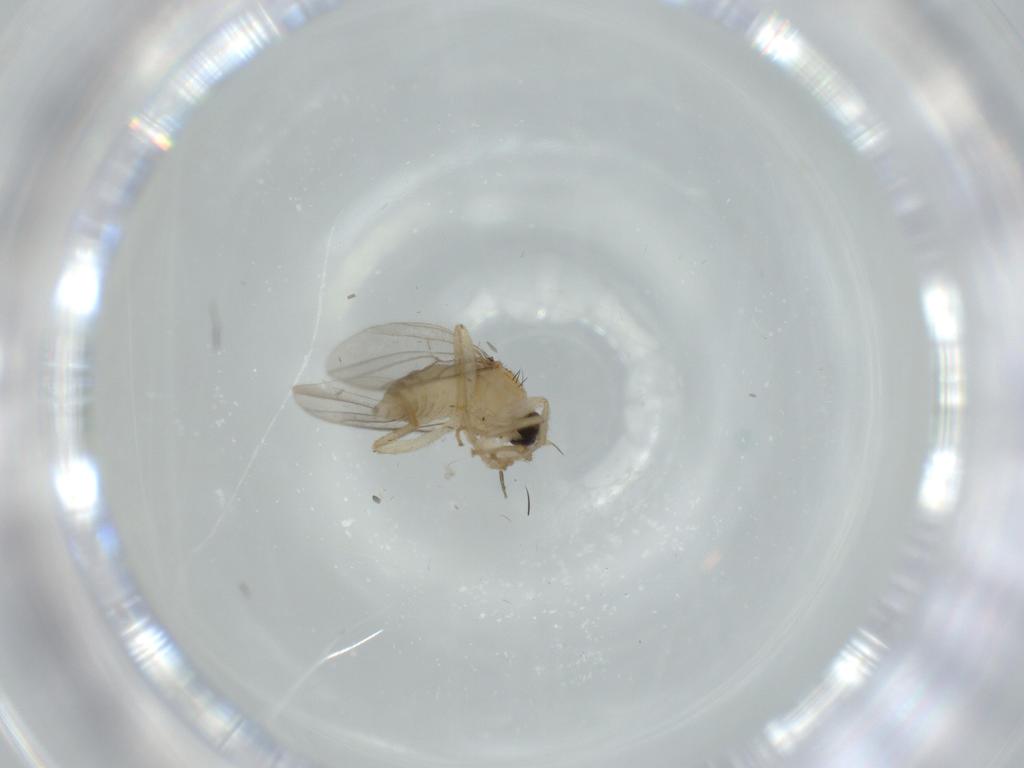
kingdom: Animalia
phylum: Arthropoda
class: Insecta
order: Diptera
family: Hybotidae
